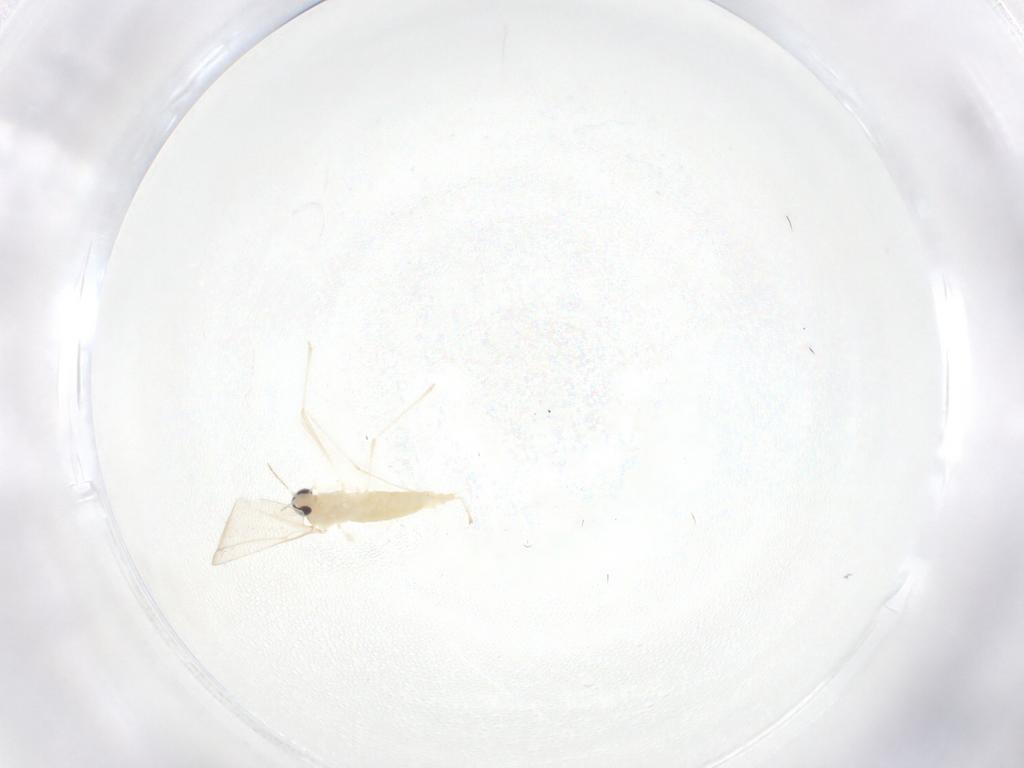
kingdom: Animalia
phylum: Arthropoda
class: Insecta
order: Diptera
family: Cecidomyiidae
